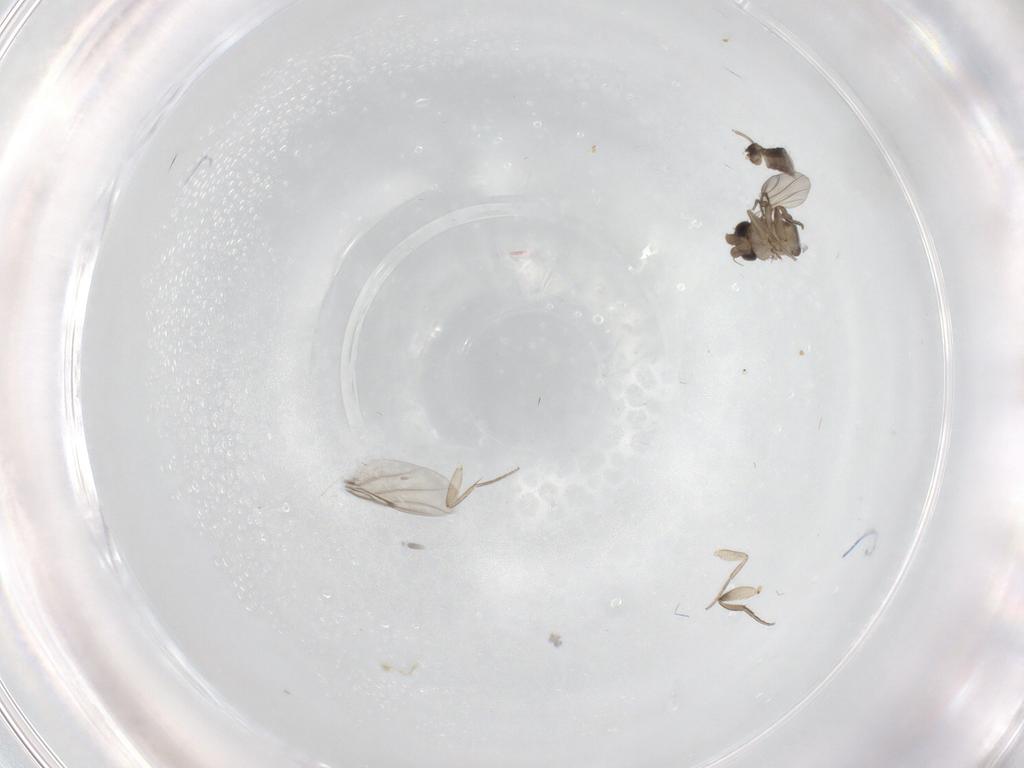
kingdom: Animalia
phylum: Arthropoda
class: Insecta
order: Diptera
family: Phoridae
